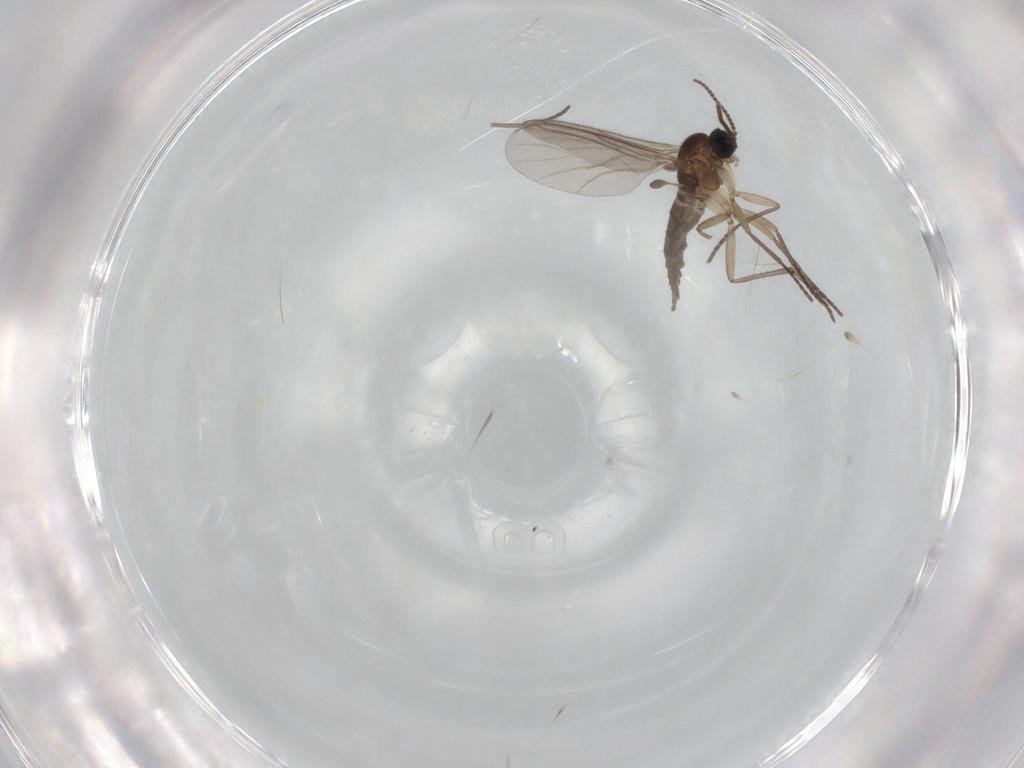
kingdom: Animalia
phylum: Arthropoda
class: Insecta
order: Diptera
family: Sciaridae
